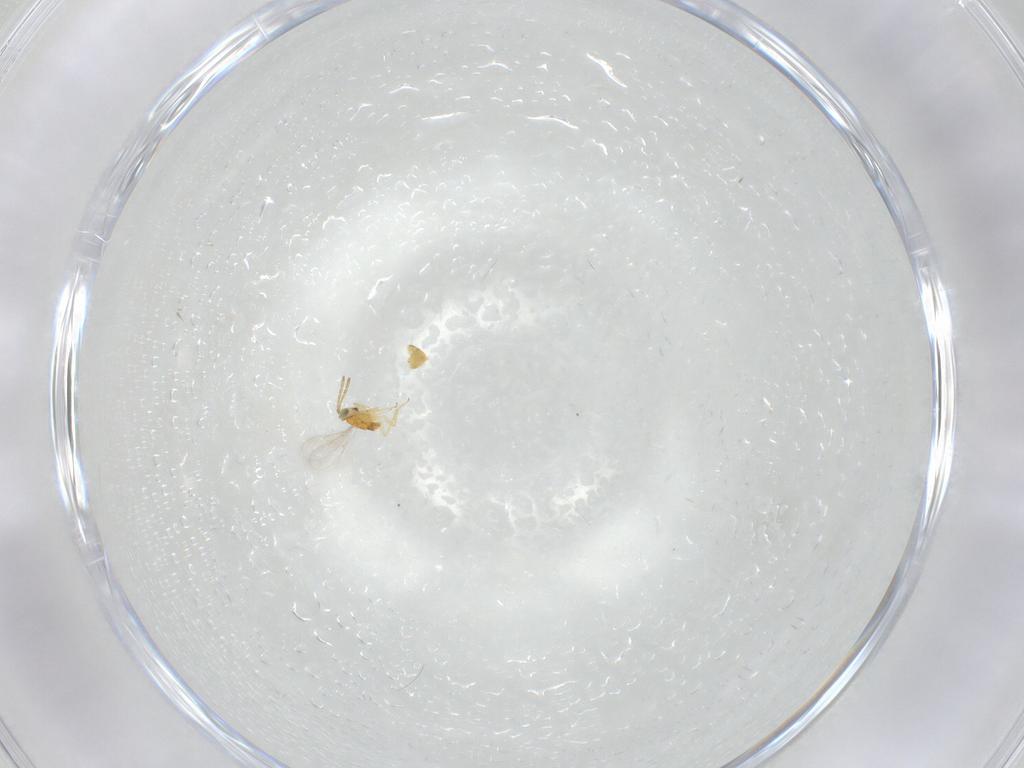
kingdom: Animalia
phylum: Arthropoda
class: Insecta
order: Hymenoptera
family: Aphelinidae
